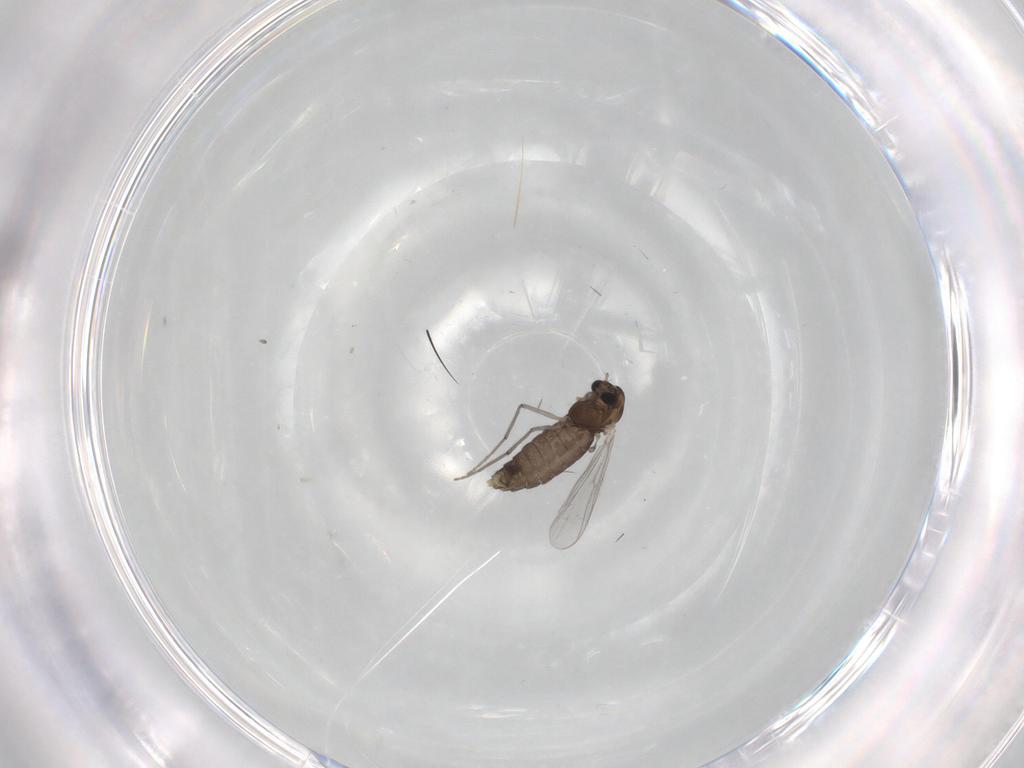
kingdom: Animalia
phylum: Arthropoda
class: Insecta
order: Diptera
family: Chironomidae
